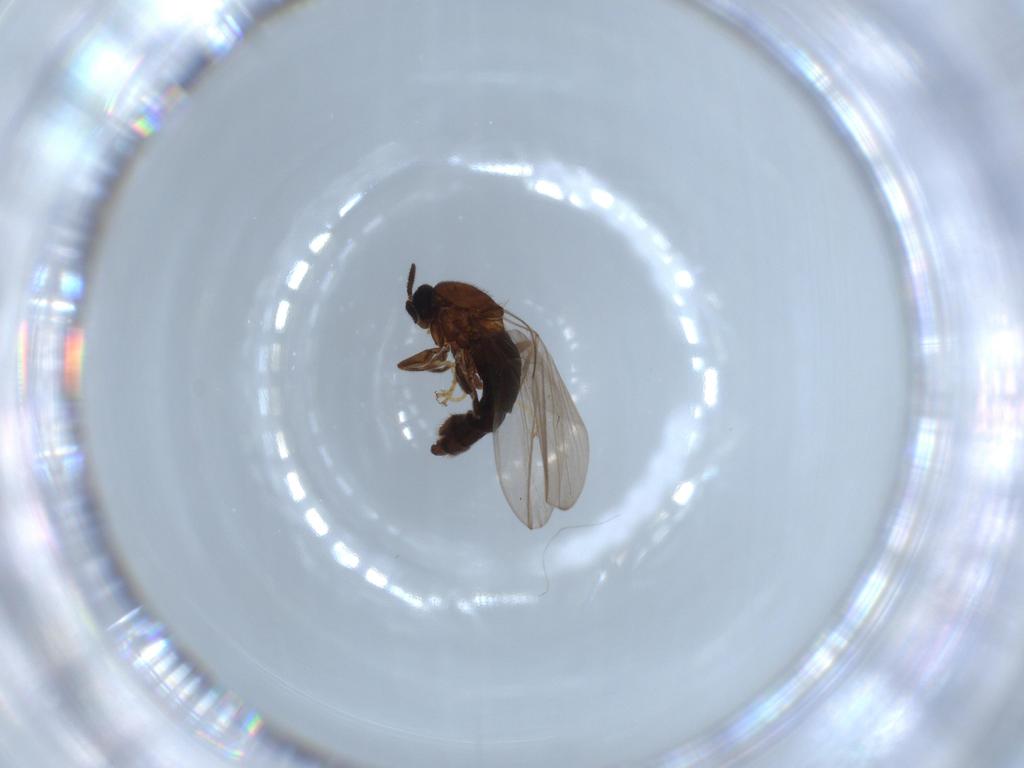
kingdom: Animalia
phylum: Arthropoda
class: Insecta
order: Diptera
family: Scatopsidae
